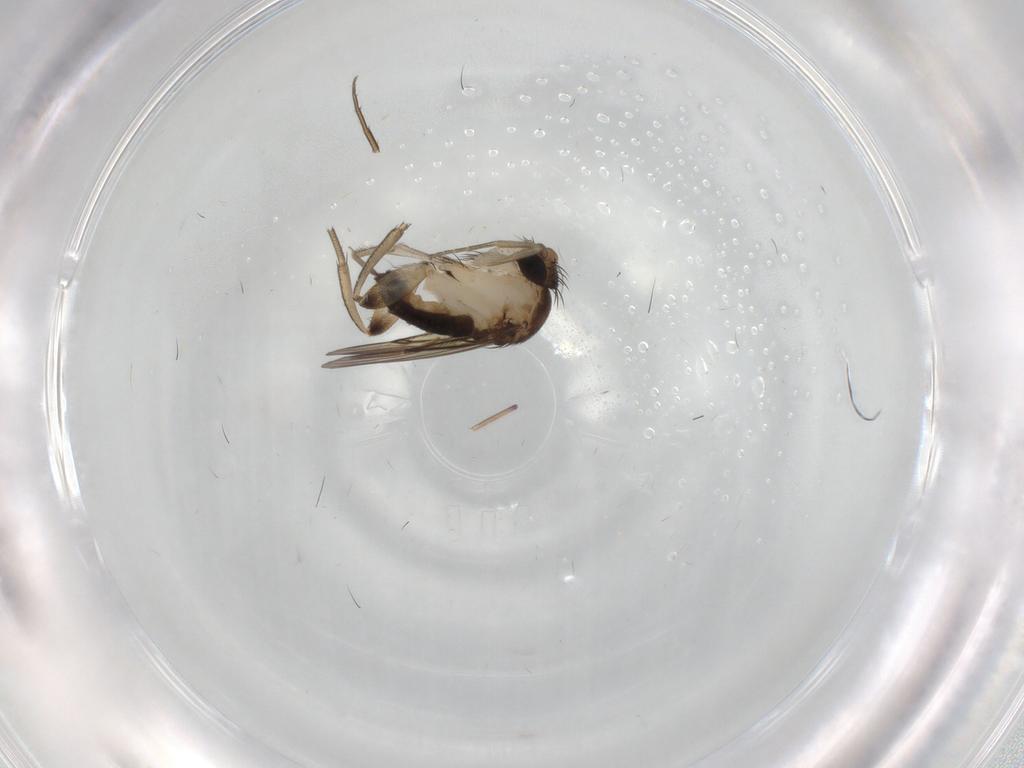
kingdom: Animalia
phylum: Arthropoda
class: Insecta
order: Diptera
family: Phoridae
